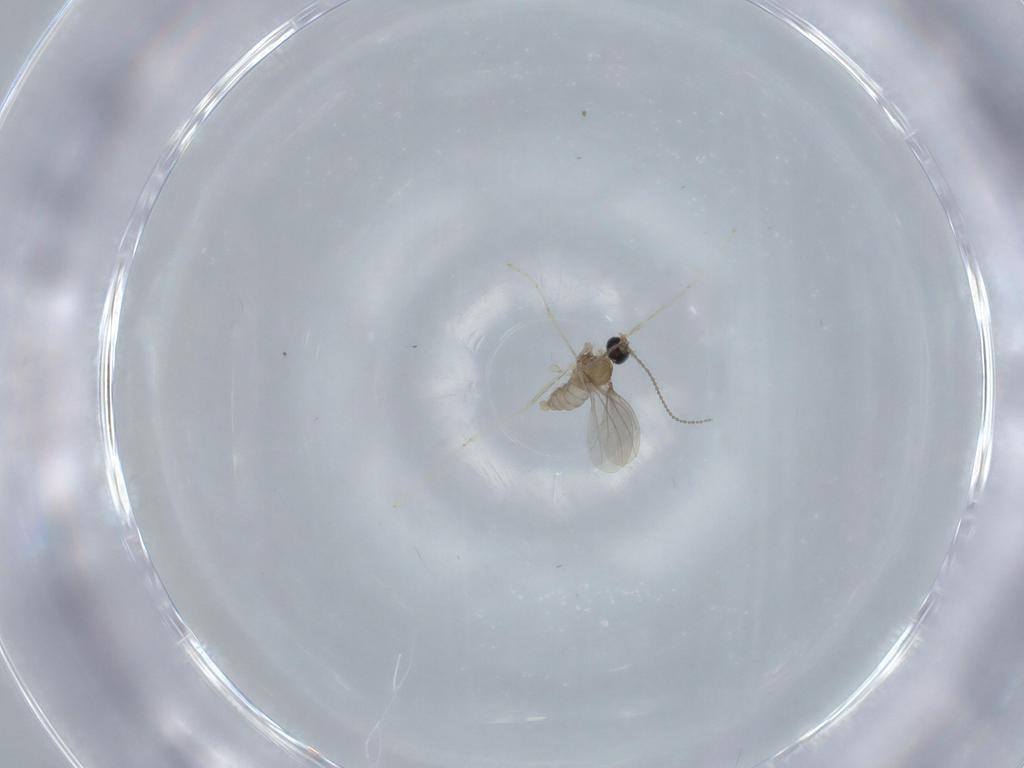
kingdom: Animalia
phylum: Arthropoda
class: Insecta
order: Diptera
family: Cecidomyiidae
